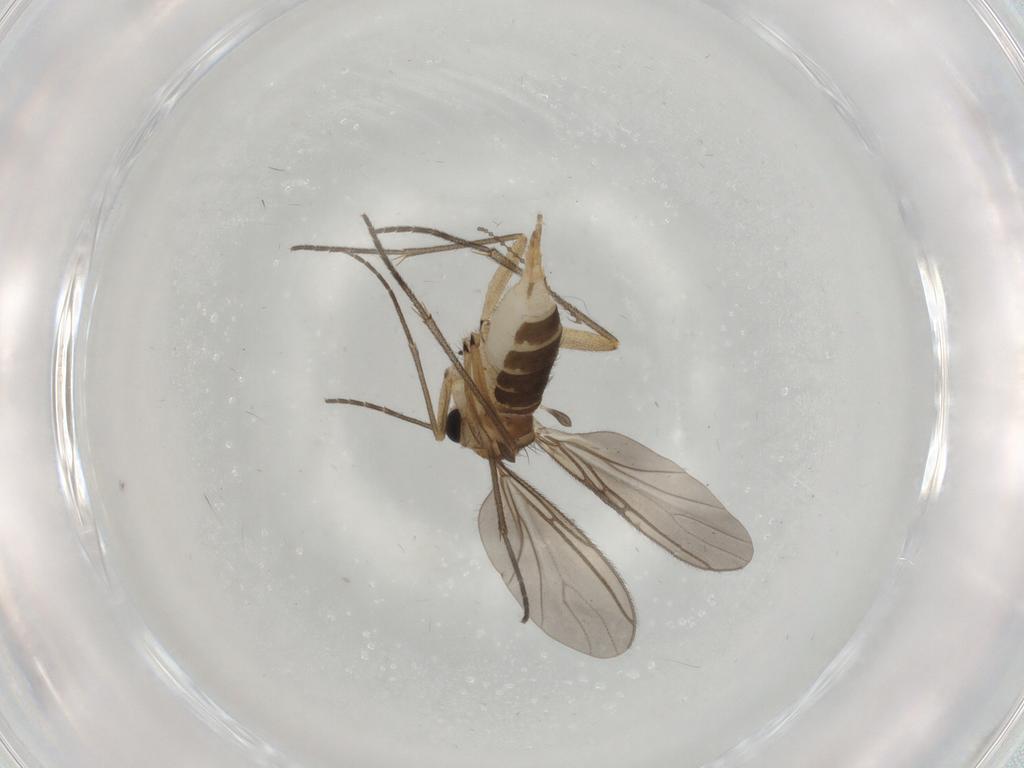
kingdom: Animalia
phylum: Arthropoda
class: Insecta
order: Diptera
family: Sciaridae
